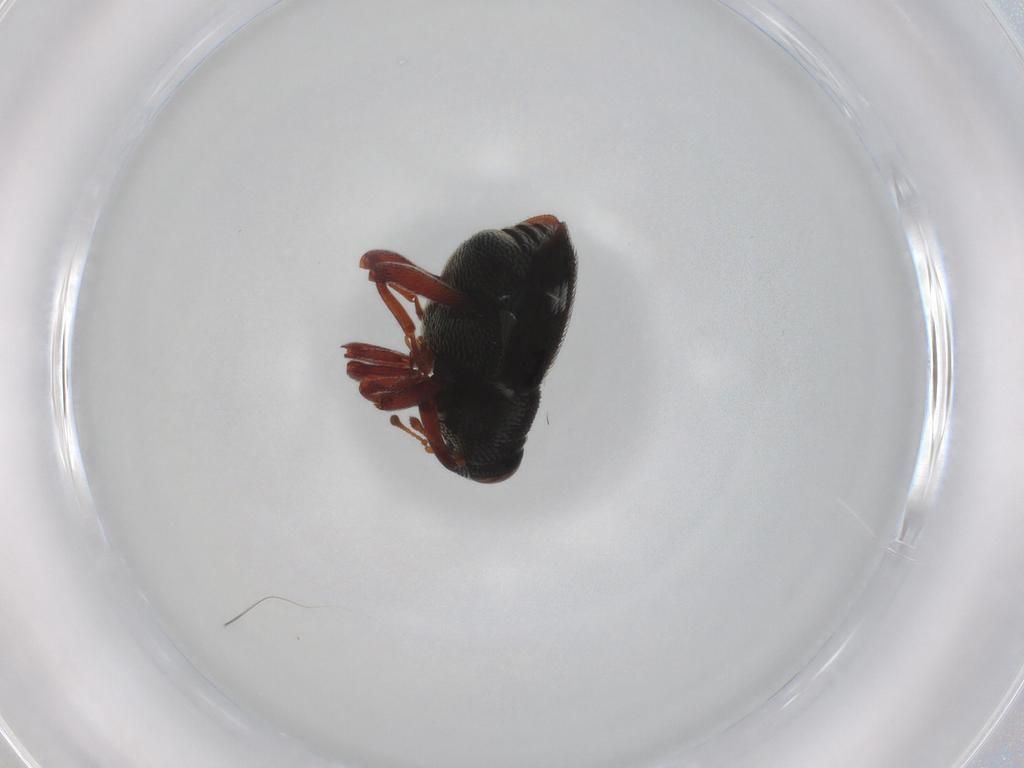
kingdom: Animalia
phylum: Arthropoda
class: Insecta
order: Coleoptera
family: Curculionidae
